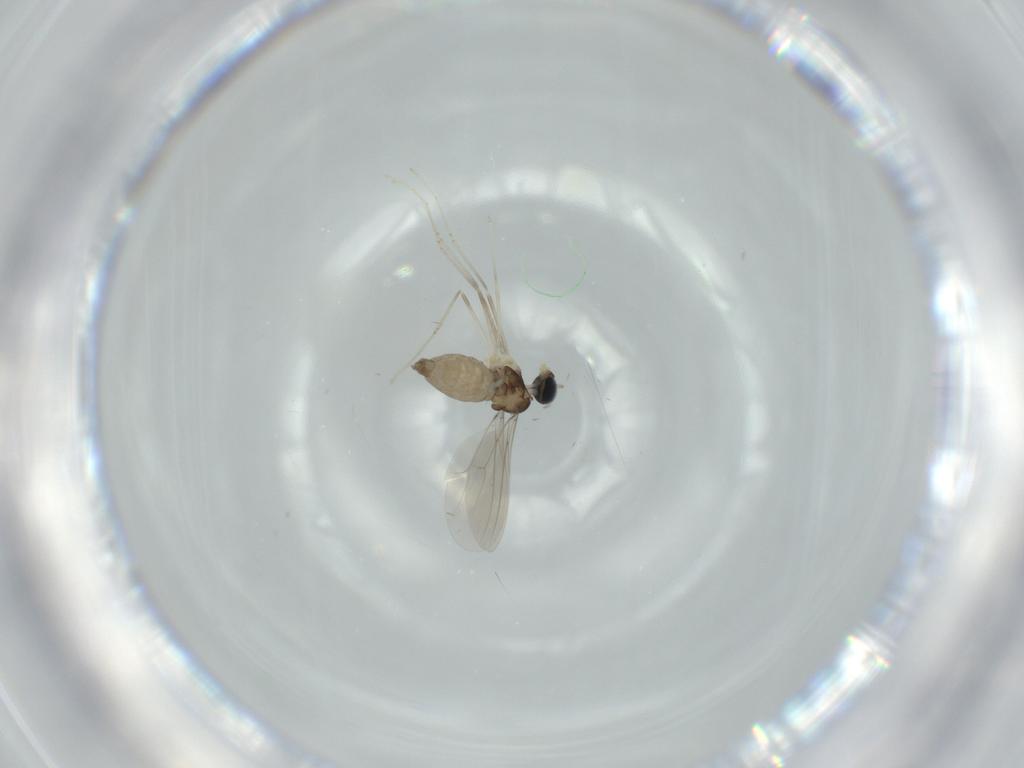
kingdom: Animalia
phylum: Arthropoda
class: Insecta
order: Diptera
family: Cecidomyiidae
